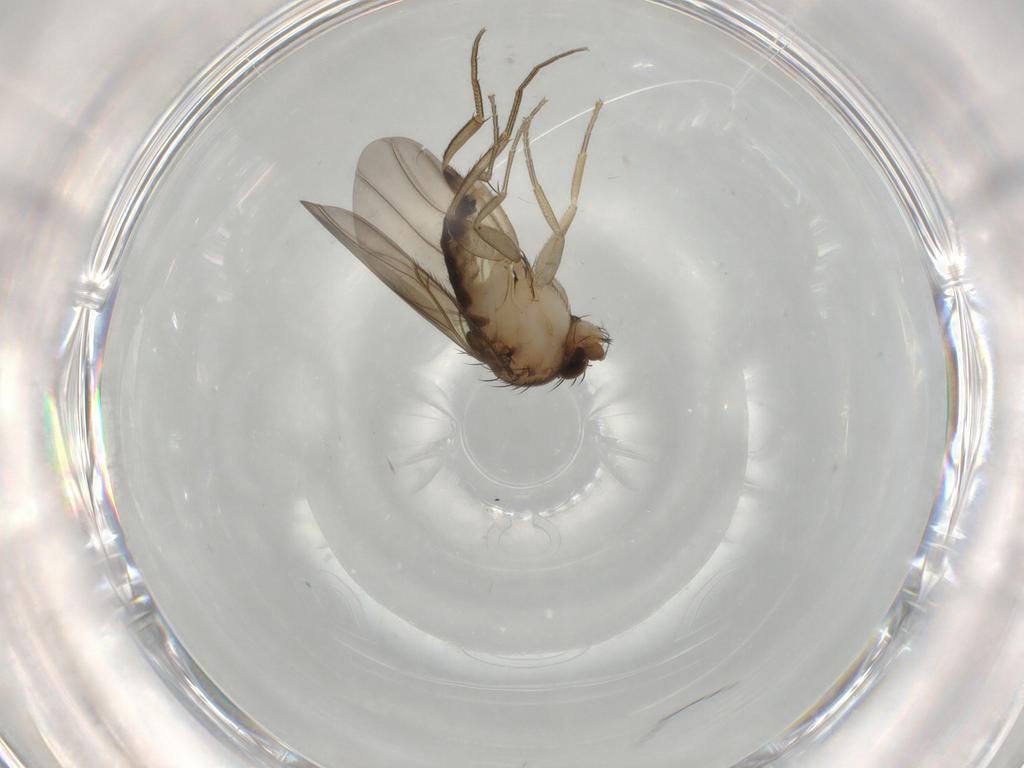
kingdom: Animalia
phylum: Arthropoda
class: Insecta
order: Diptera
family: Phoridae
